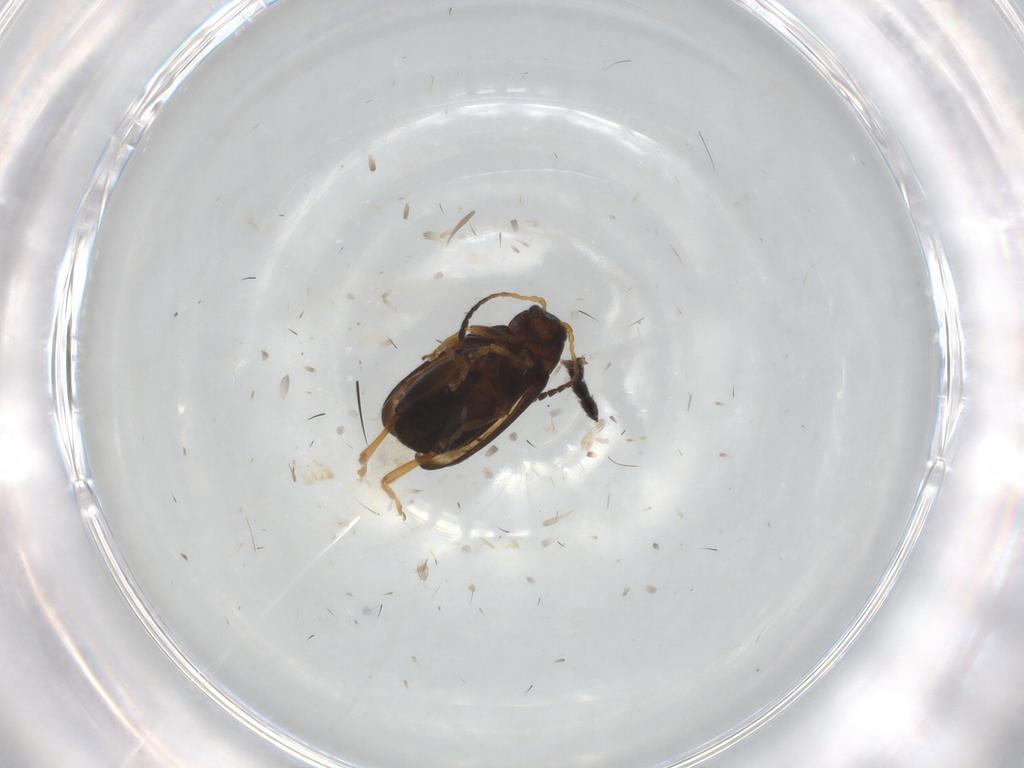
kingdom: Animalia
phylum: Arthropoda
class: Insecta
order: Coleoptera
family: Chrysomelidae
